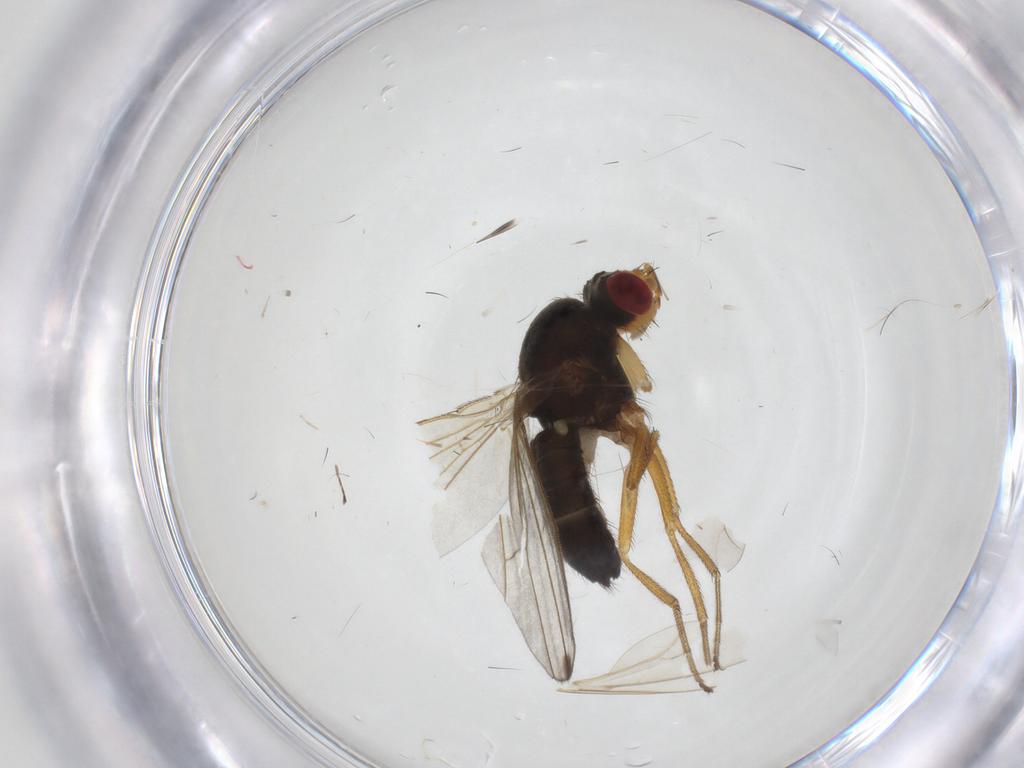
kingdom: Animalia
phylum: Arthropoda
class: Insecta
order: Diptera
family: Drosophilidae
